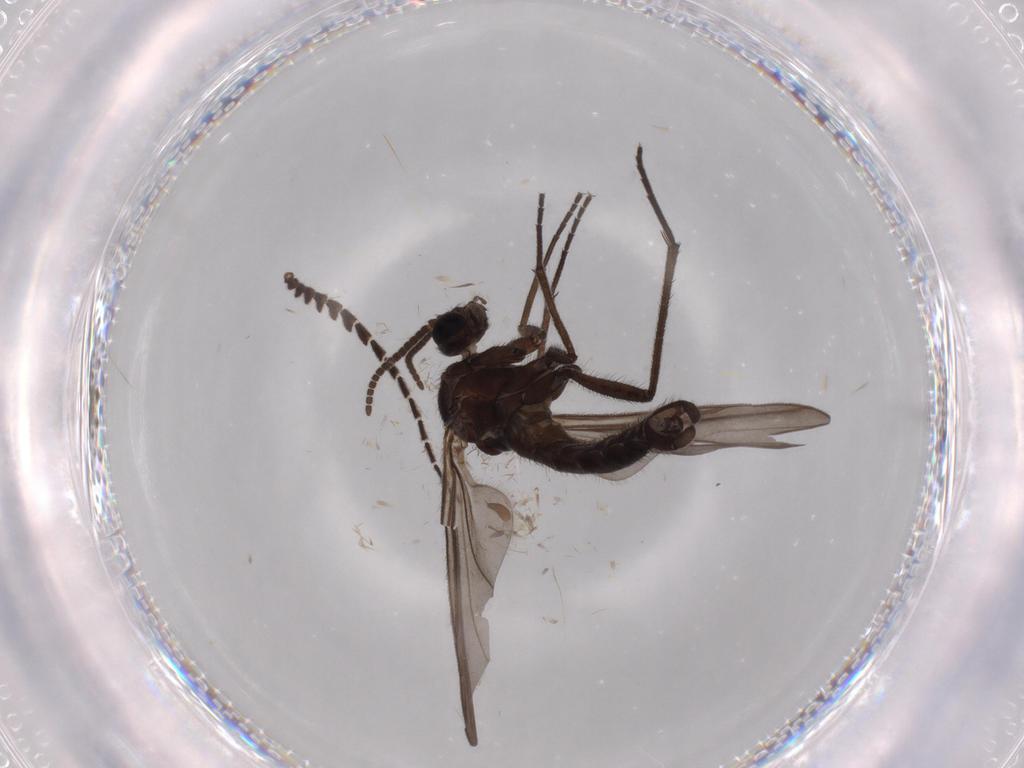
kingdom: Animalia
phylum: Arthropoda
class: Insecta
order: Diptera
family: Sciaridae
